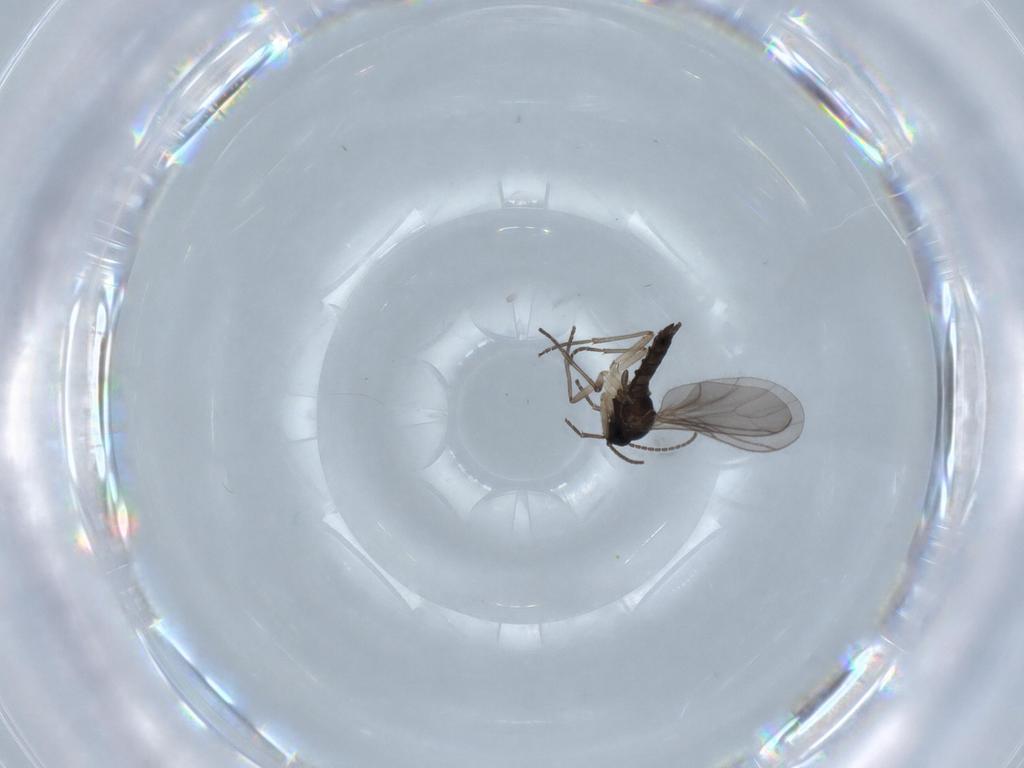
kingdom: Animalia
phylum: Arthropoda
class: Insecta
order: Diptera
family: Sciaridae
